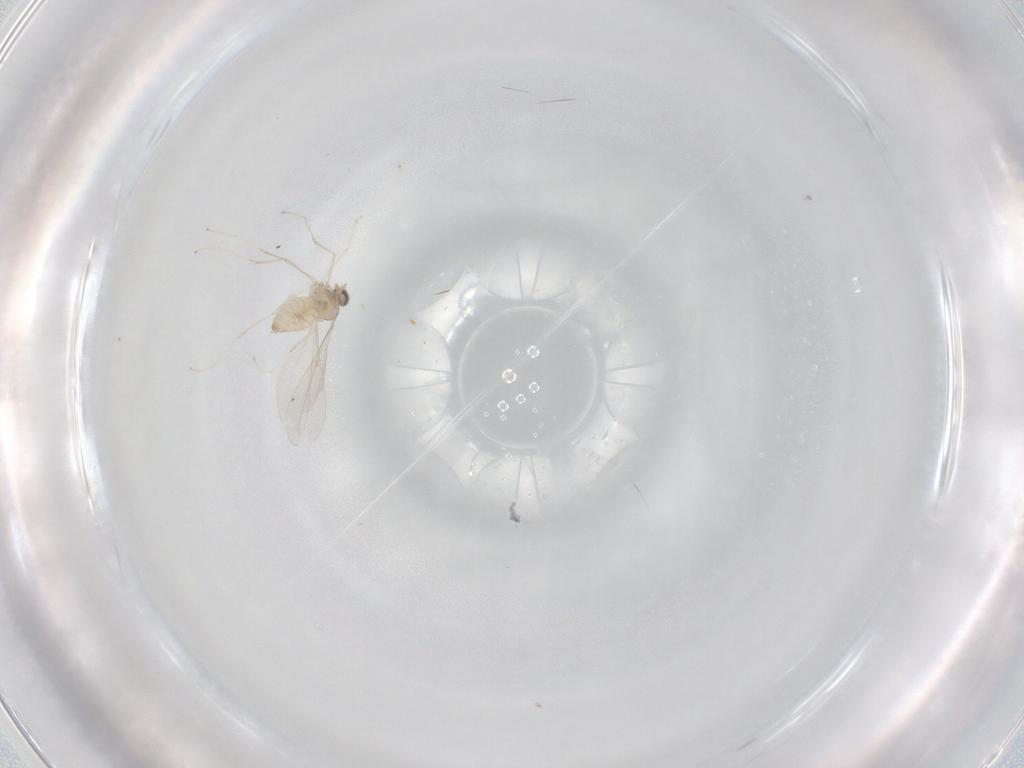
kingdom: Animalia
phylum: Arthropoda
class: Insecta
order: Diptera
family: Cecidomyiidae
